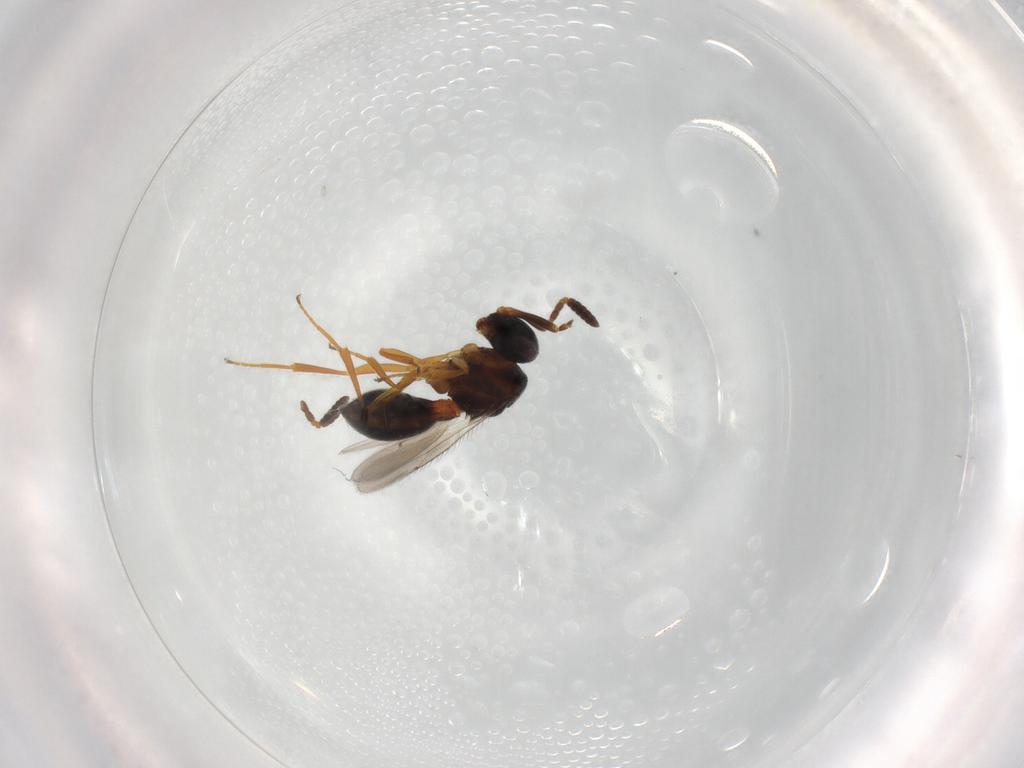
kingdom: Animalia
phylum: Arthropoda
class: Insecta
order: Hymenoptera
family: Scelionidae
